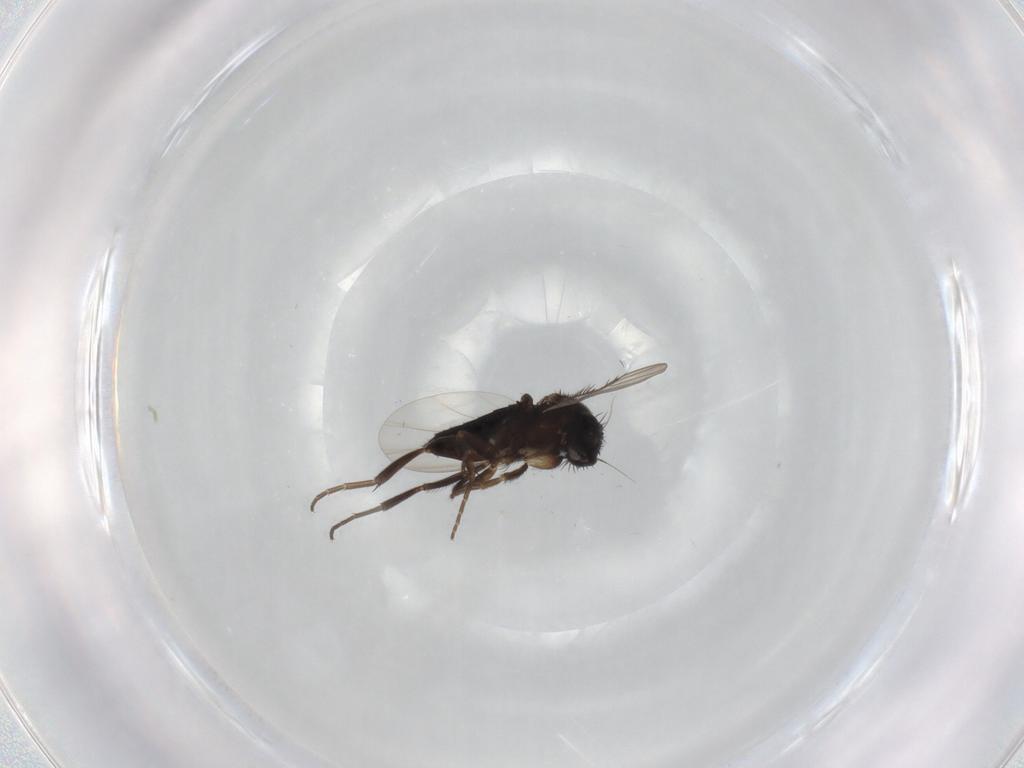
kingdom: Animalia
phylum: Arthropoda
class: Insecta
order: Diptera
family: Phoridae
